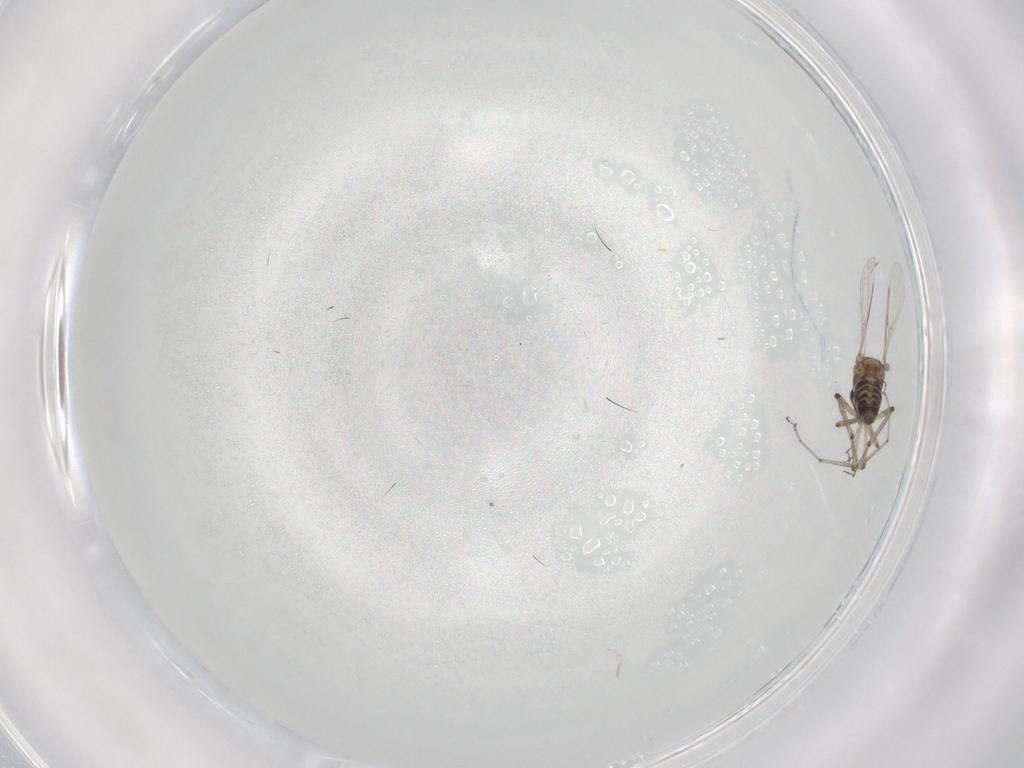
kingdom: Animalia
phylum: Arthropoda
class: Insecta
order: Diptera
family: Ceratopogonidae
